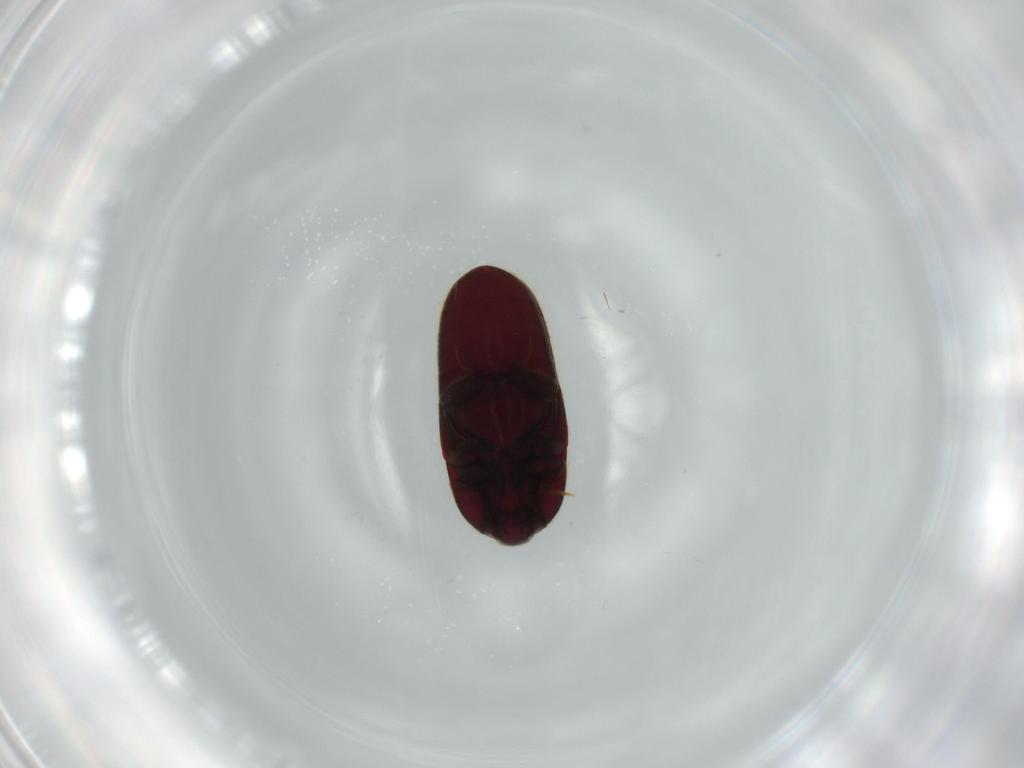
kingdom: Animalia
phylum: Arthropoda
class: Insecta
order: Coleoptera
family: Throscidae
